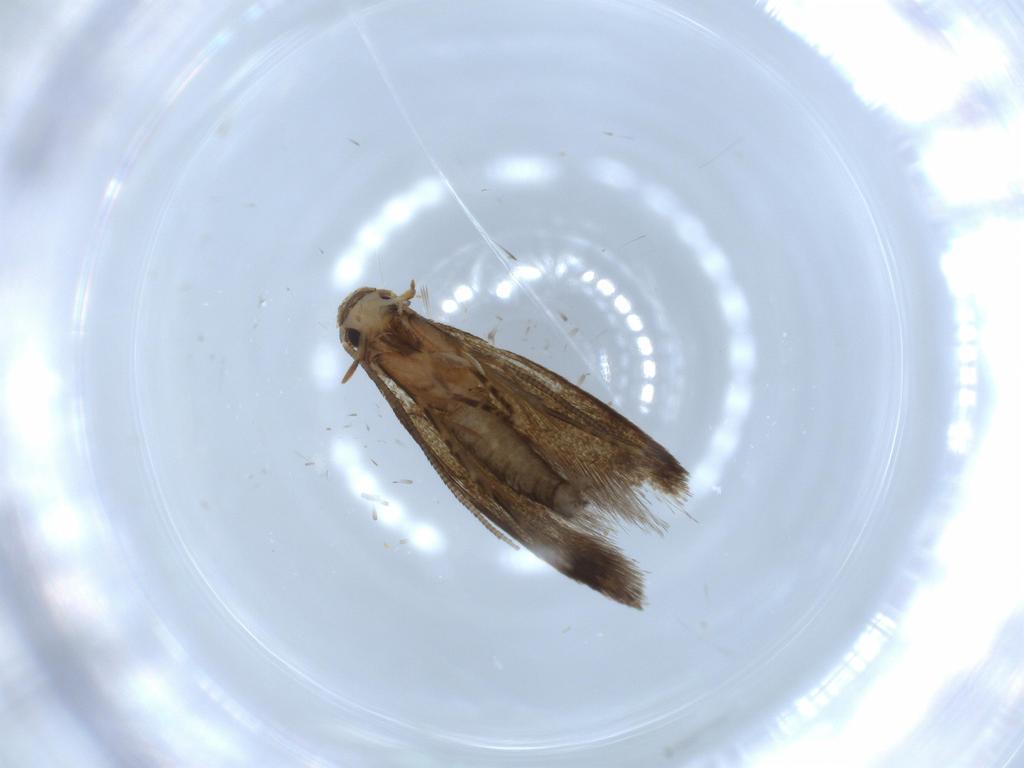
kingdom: Animalia
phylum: Arthropoda
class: Insecta
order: Lepidoptera
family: Tineidae
